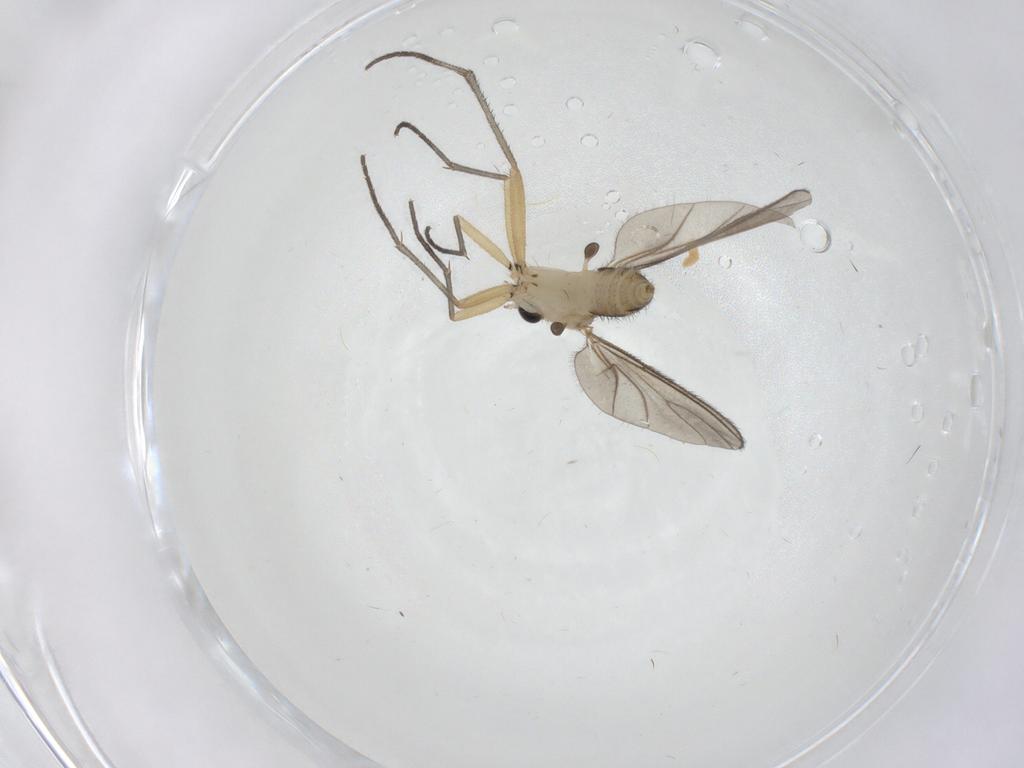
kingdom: Animalia
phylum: Arthropoda
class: Insecta
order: Diptera
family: Sciaridae
